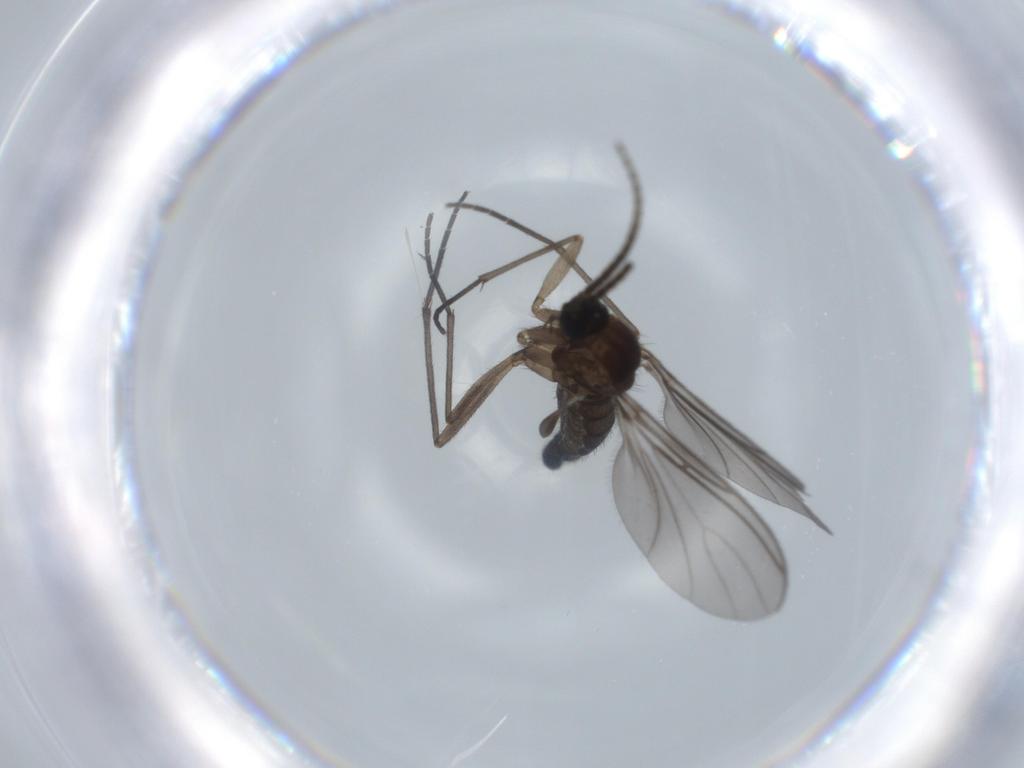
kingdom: Animalia
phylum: Arthropoda
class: Insecta
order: Diptera
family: Sciaridae
